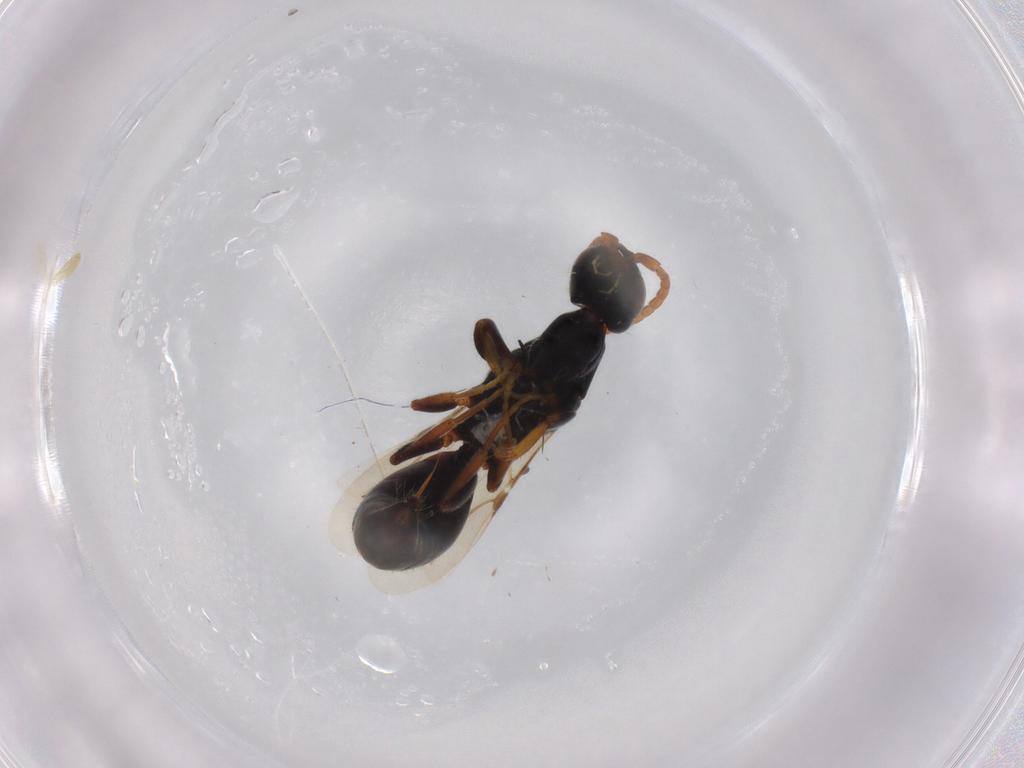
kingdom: Animalia
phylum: Arthropoda
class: Insecta
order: Hymenoptera
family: Bethylidae
